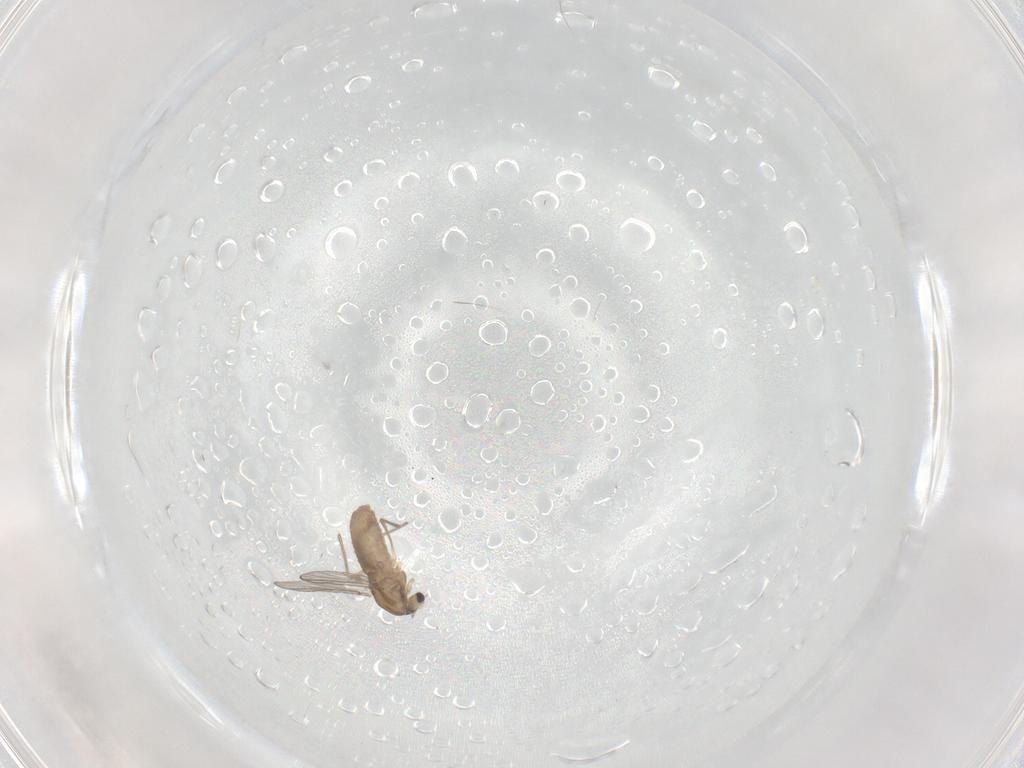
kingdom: Animalia
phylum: Arthropoda
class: Insecta
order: Diptera
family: Chironomidae
